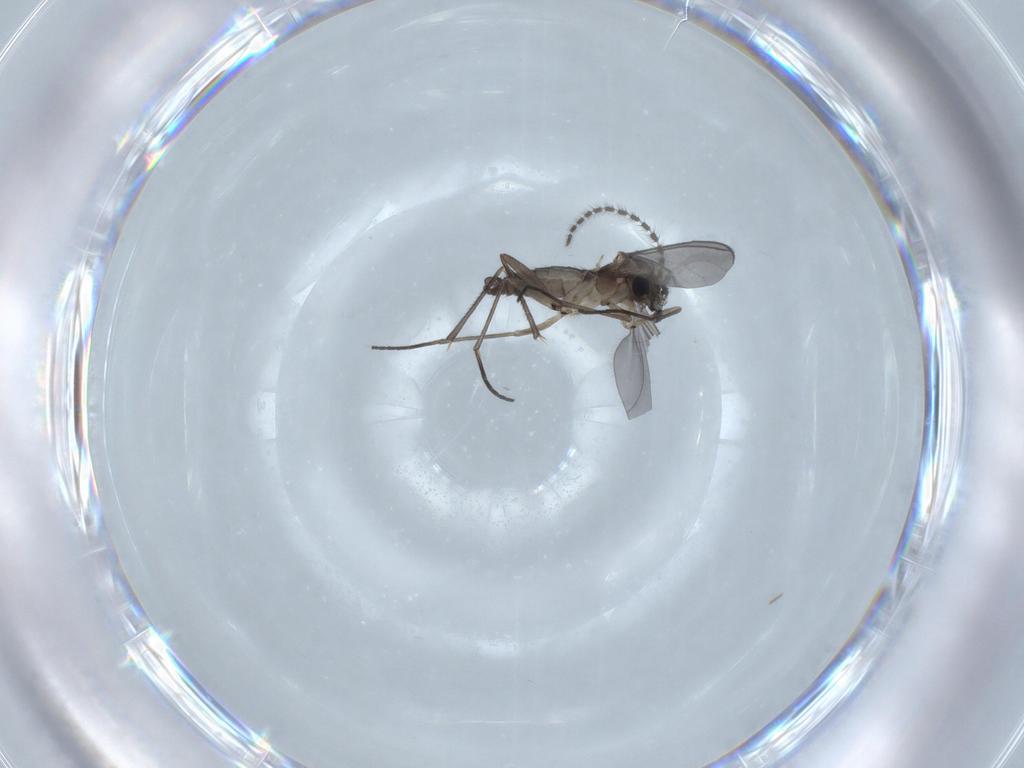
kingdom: Animalia
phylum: Arthropoda
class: Insecta
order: Diptera
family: Sciaridae
